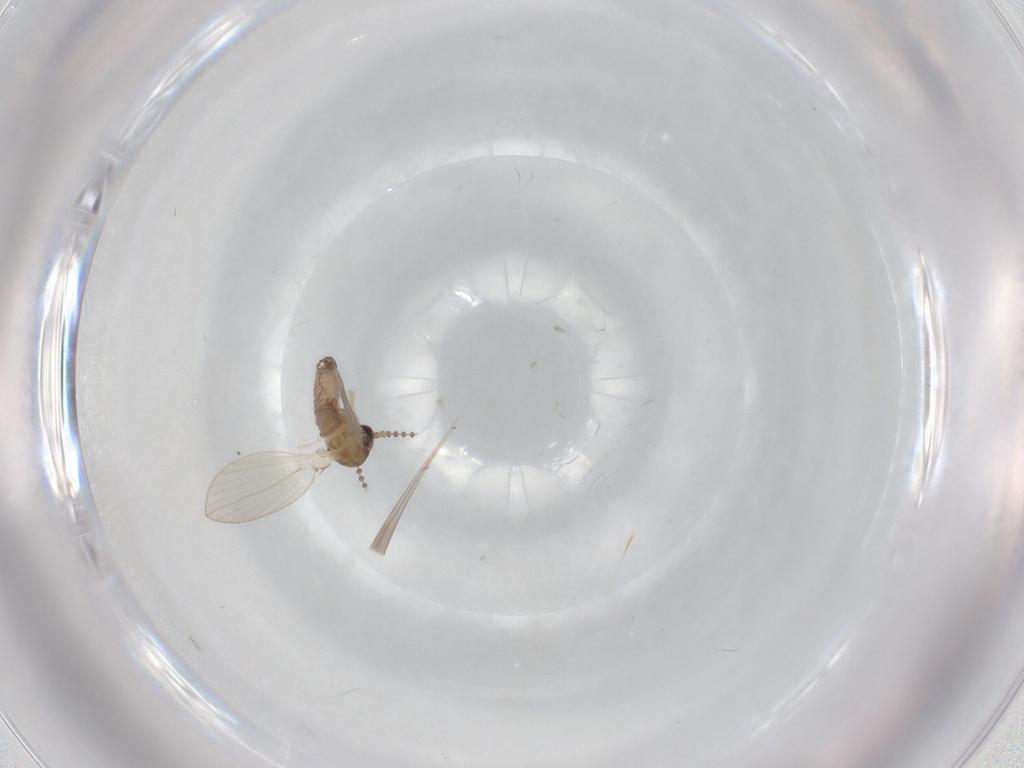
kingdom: Animalia
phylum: Arthropoda
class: Insecta
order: Diptera
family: Psychodidae
